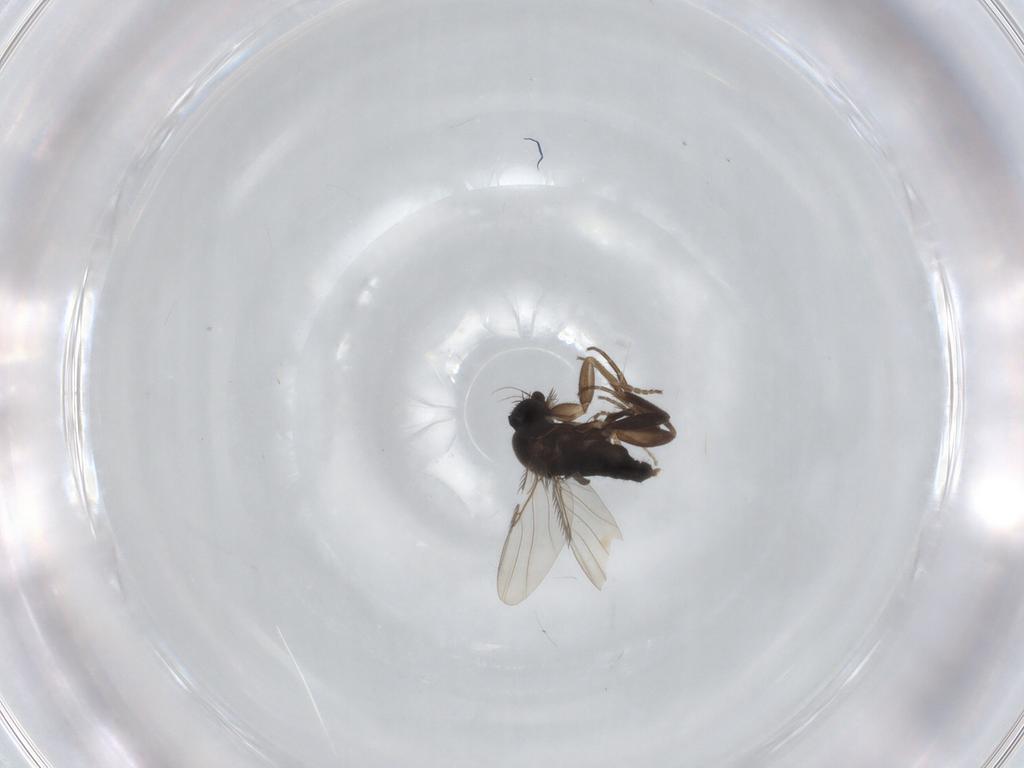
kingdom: Animalia
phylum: Arthropoda
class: Insecta
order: Diptera
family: Phoridae
